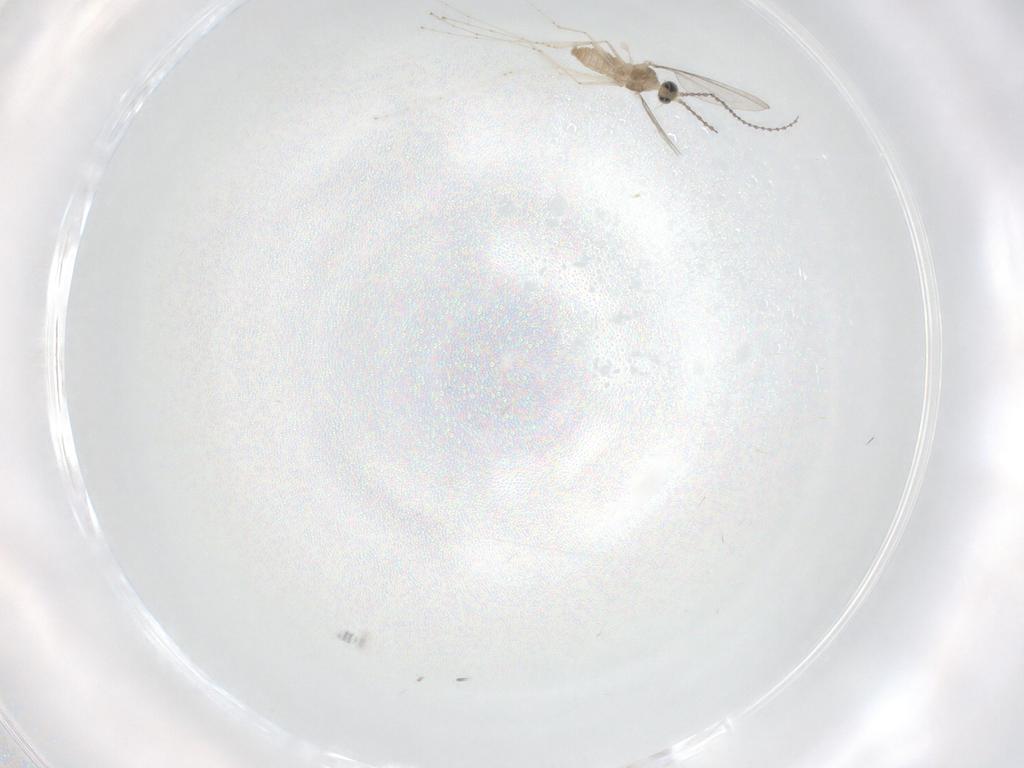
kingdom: Animalia
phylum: Arthropoda
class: Insecta
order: Diptera
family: Cecidomyiidae
